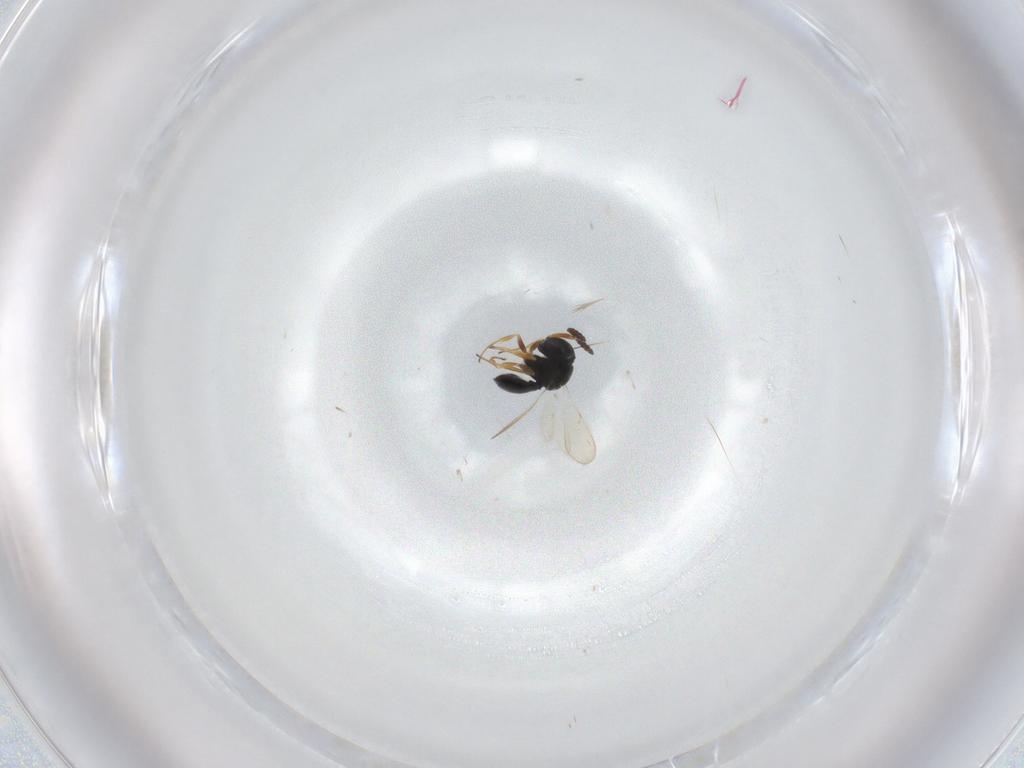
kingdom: Animalia
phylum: Arthropoda
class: Insecta
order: Hymenoptera
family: Scelionidae
